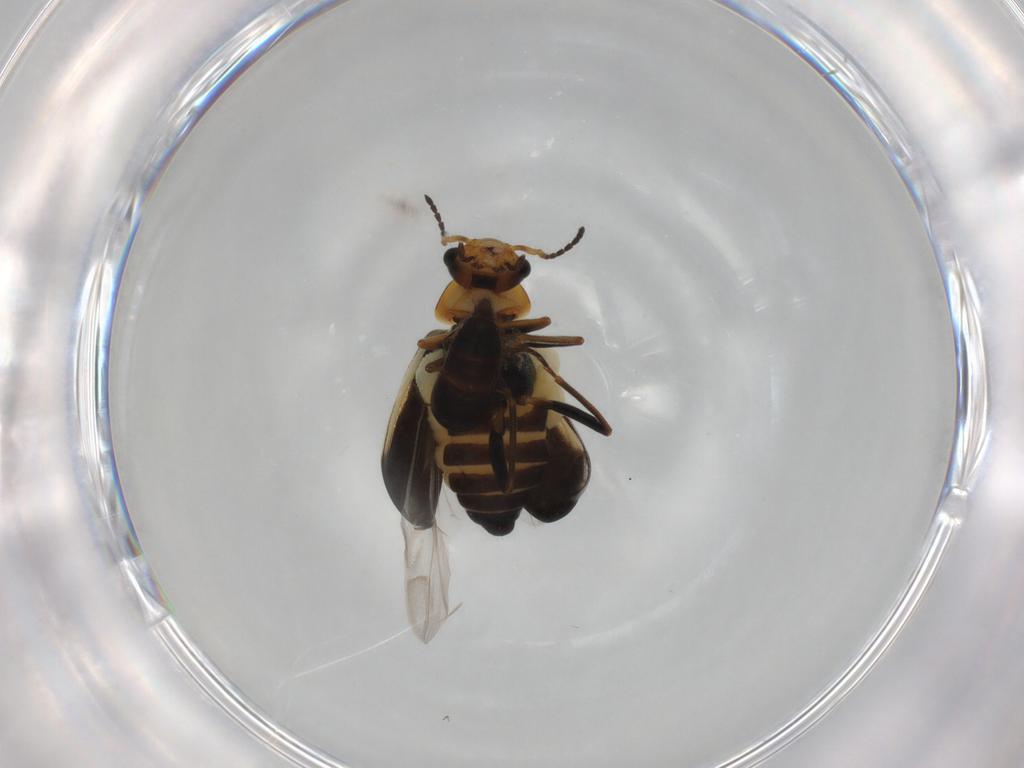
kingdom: Animalia
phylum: Arthropoda
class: Insecta
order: Coleoptera
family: Melyridae
